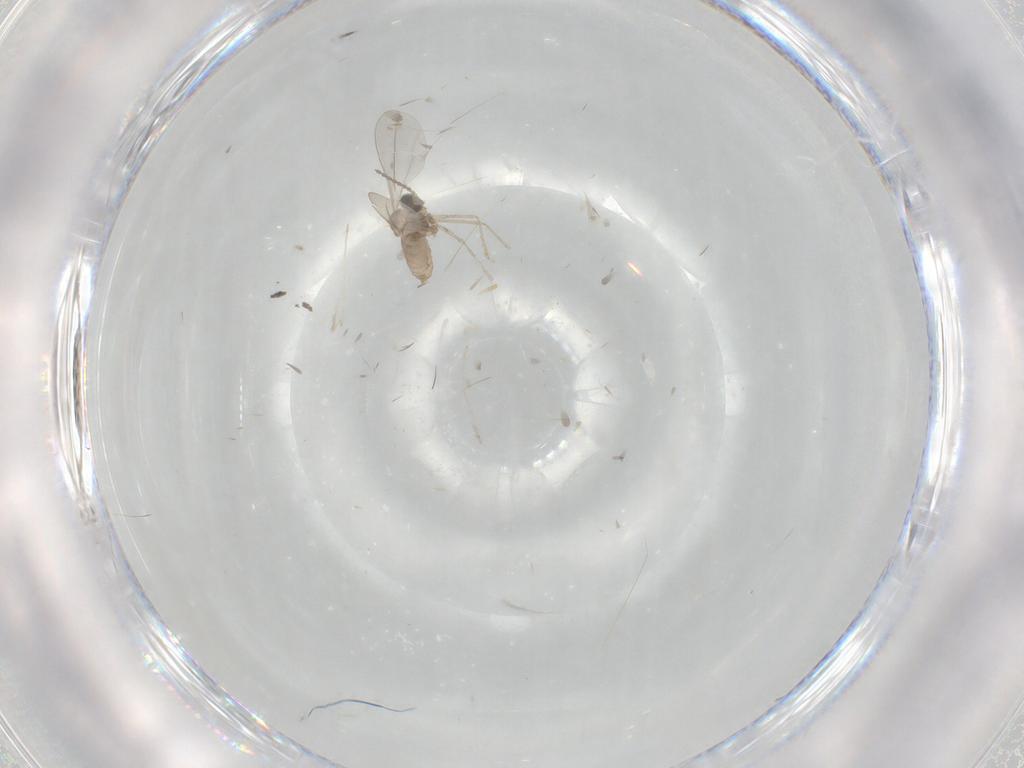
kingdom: Animalia
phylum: Arthropoda
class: Insecta
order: Diptera
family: Cecidomyiidae
